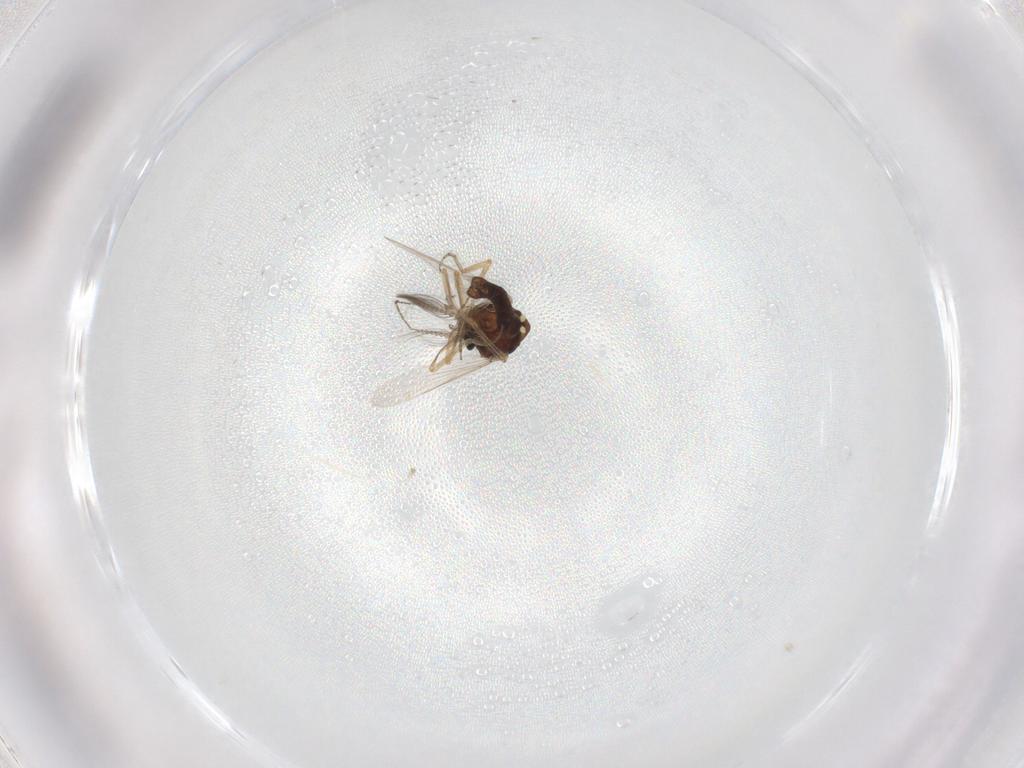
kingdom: Animalia
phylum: Arthropoda
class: Insecta
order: Diptera
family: Ceratopogonidae
